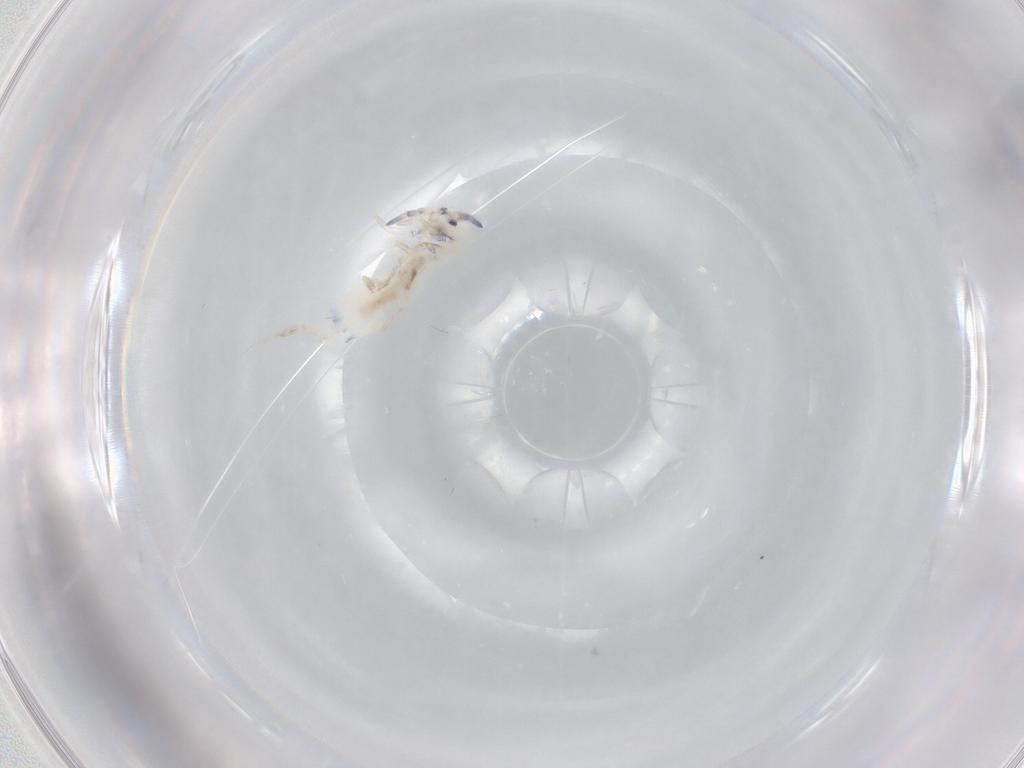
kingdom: Animalia
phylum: Arthropoda
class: Collembola
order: Entomobryomorpha
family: Entomobryidae
